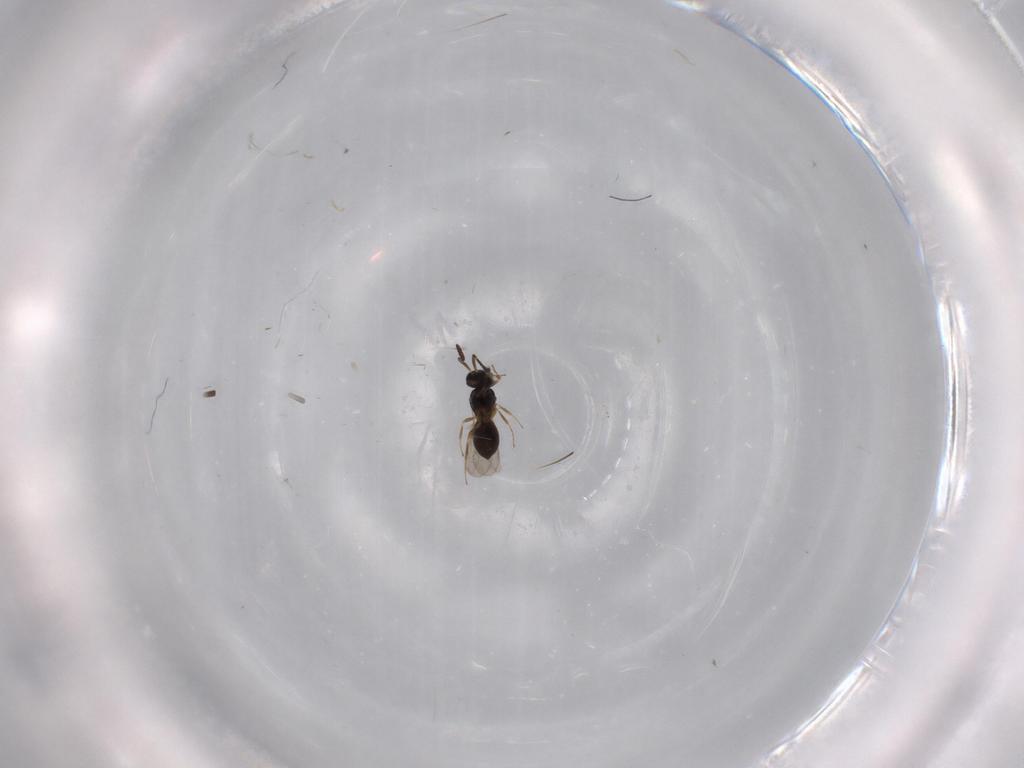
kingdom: Animalia
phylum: Arthropoda
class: Insecta
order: Hymenoptera
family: Scelionidae
